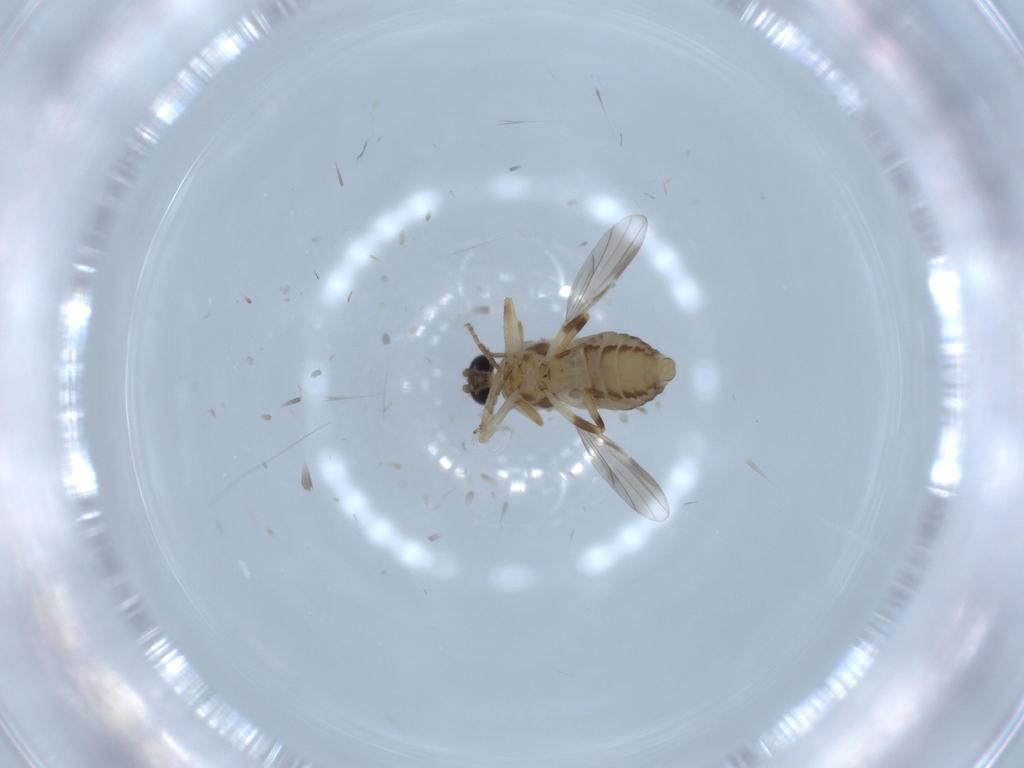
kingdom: Animalia
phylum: Arthropoda
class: Insecta
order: Diptera
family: Ceratopogonidae
